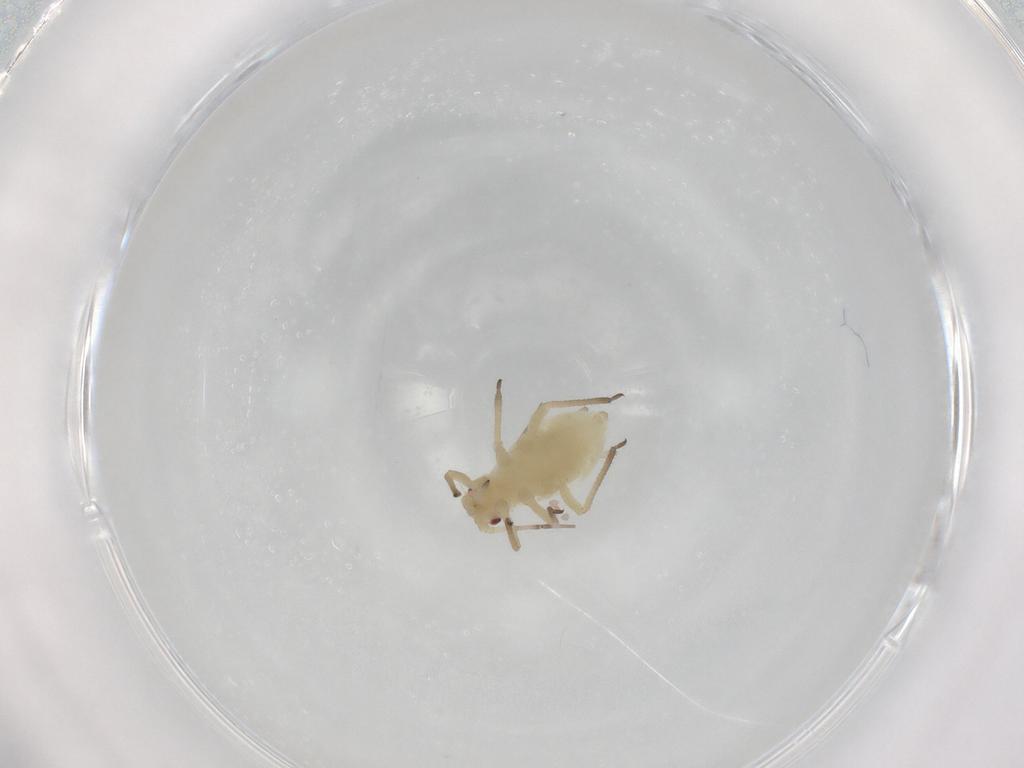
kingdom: Animalia
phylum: Arthropoda
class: Insecta
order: Hemiptera
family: Aphididae
